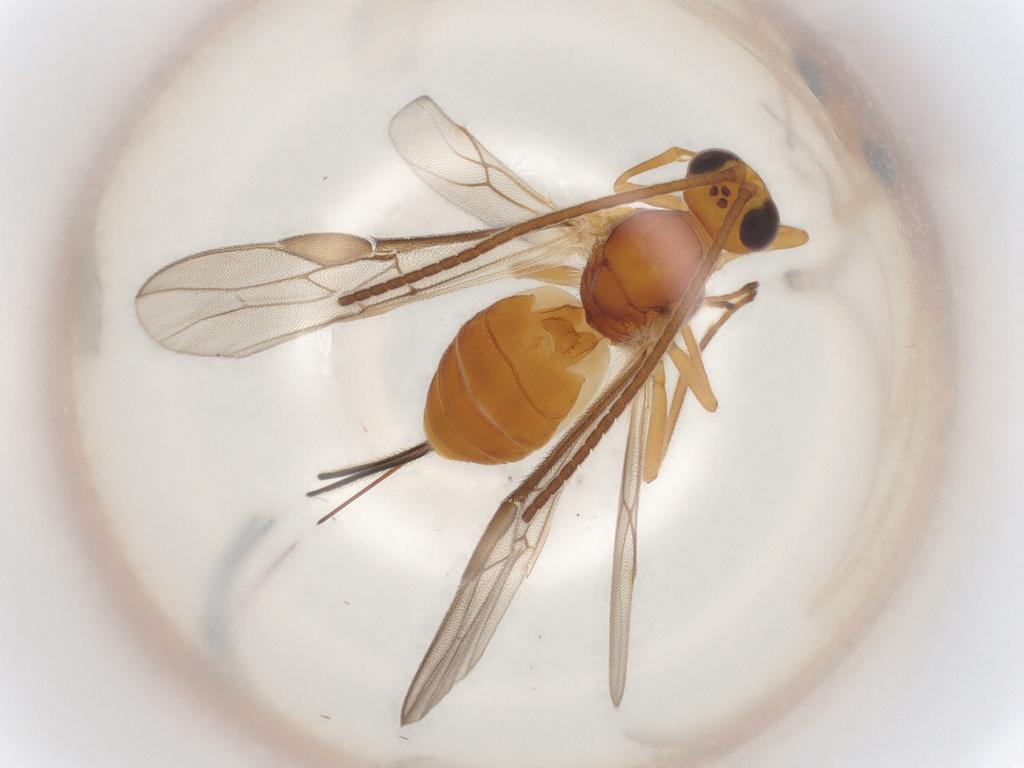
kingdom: Animalia
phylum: Arthropoda
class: Insecta
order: Hymenoptera
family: Braconidae
